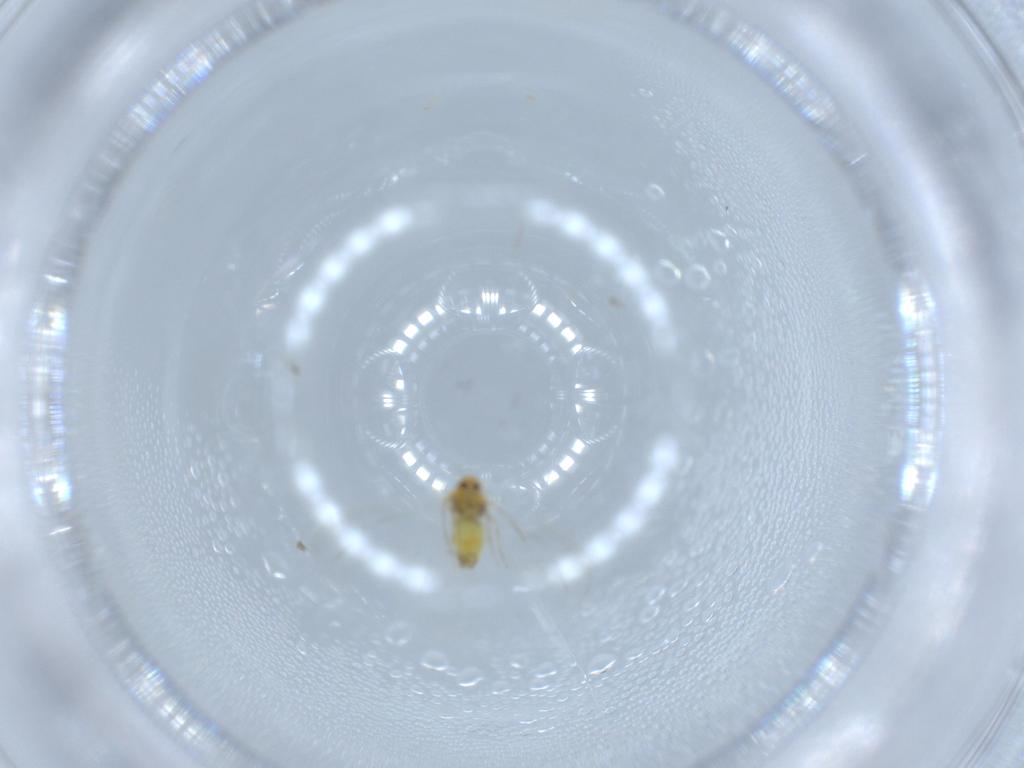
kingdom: Animalia
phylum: Arthropoda
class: Insecta
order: Hemiptera
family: Aleyrodidae
